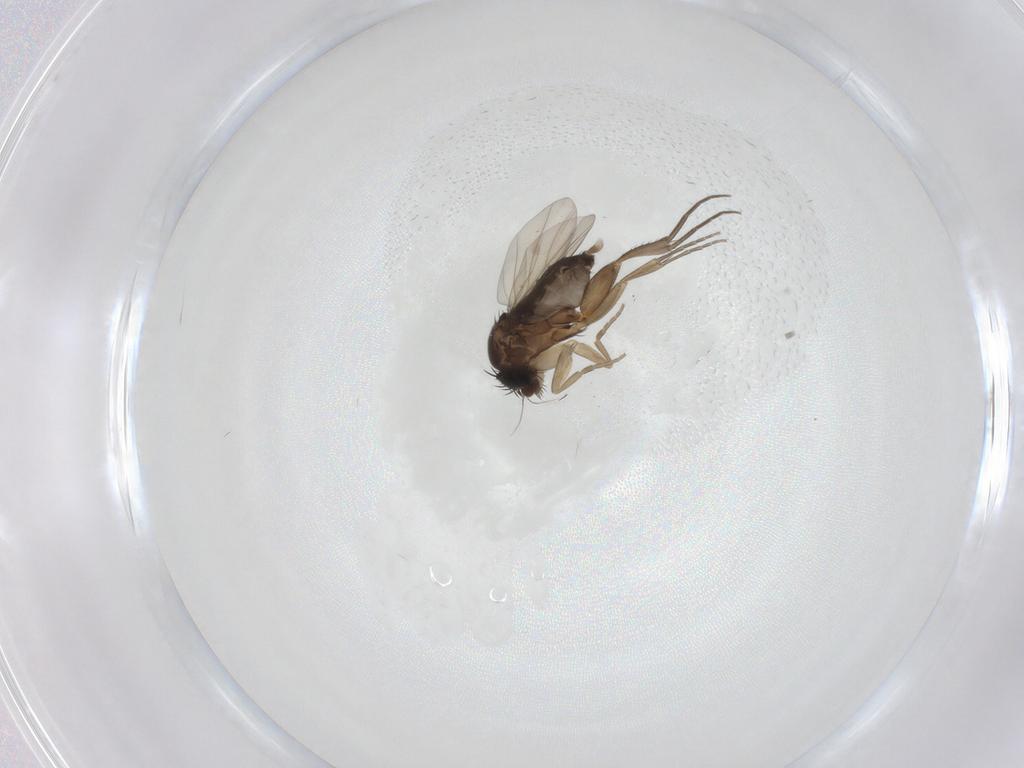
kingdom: Animalia
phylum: Arthropoda
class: Insecta
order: Diptera
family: Phoridae
